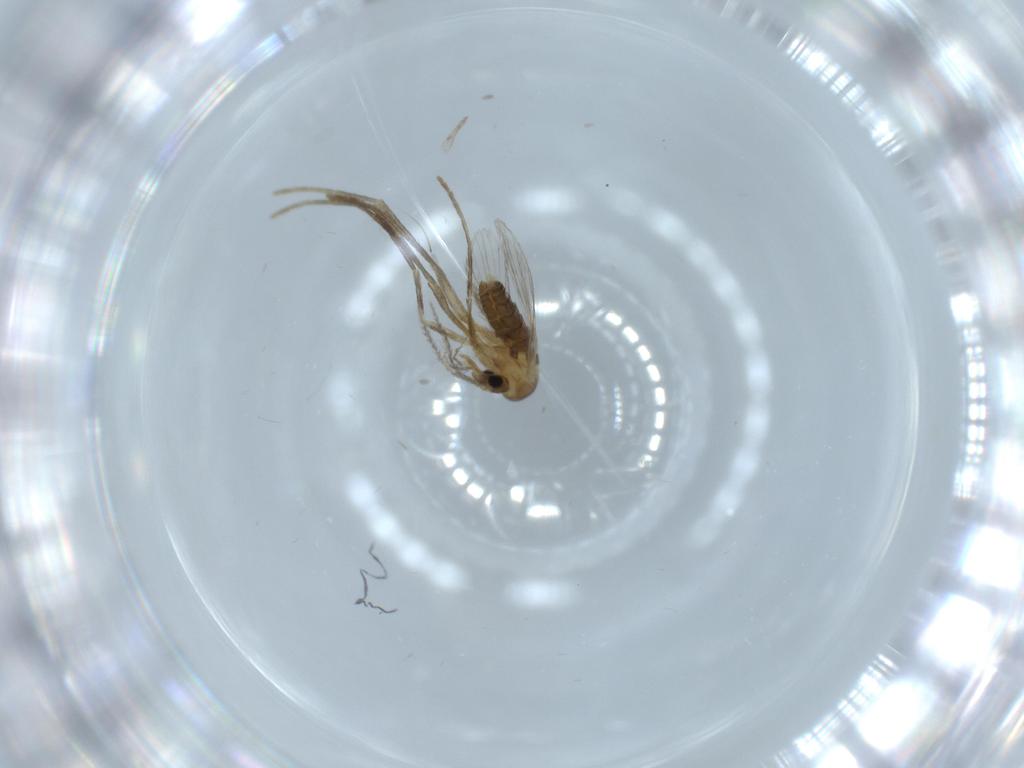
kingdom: Animalia
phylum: Arthropoda
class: Insecta
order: Diptera
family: Psychodidae
